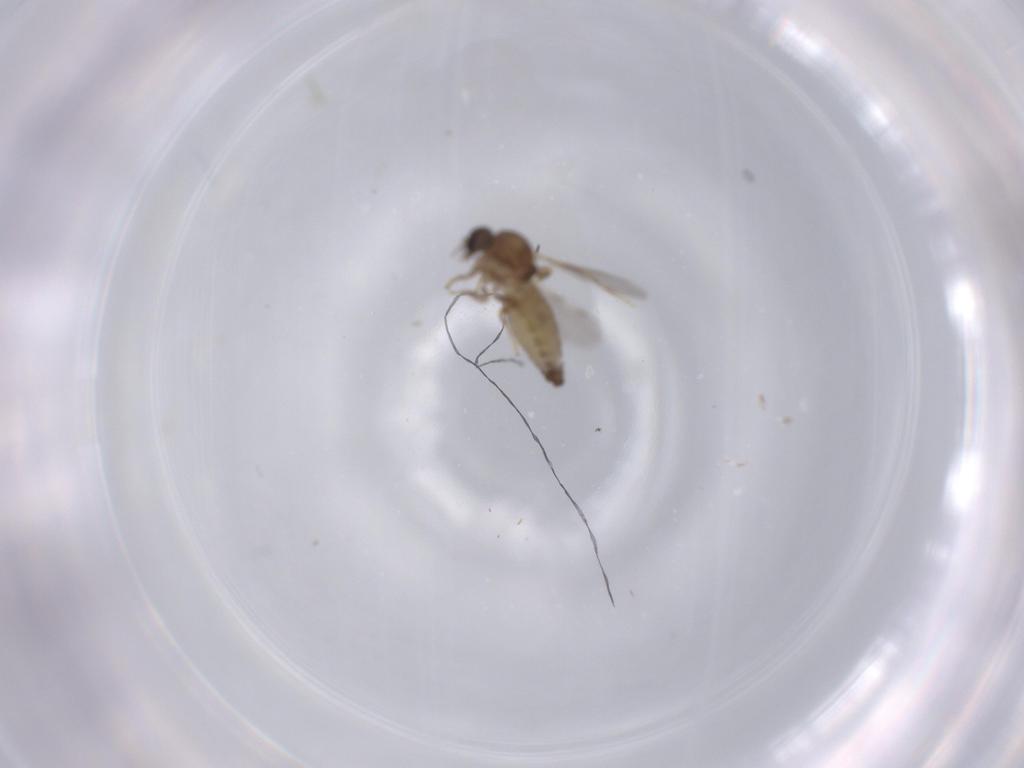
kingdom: Animalia
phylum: Arthropoda
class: Insecta
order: Diptera
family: Ceratopogonidae
